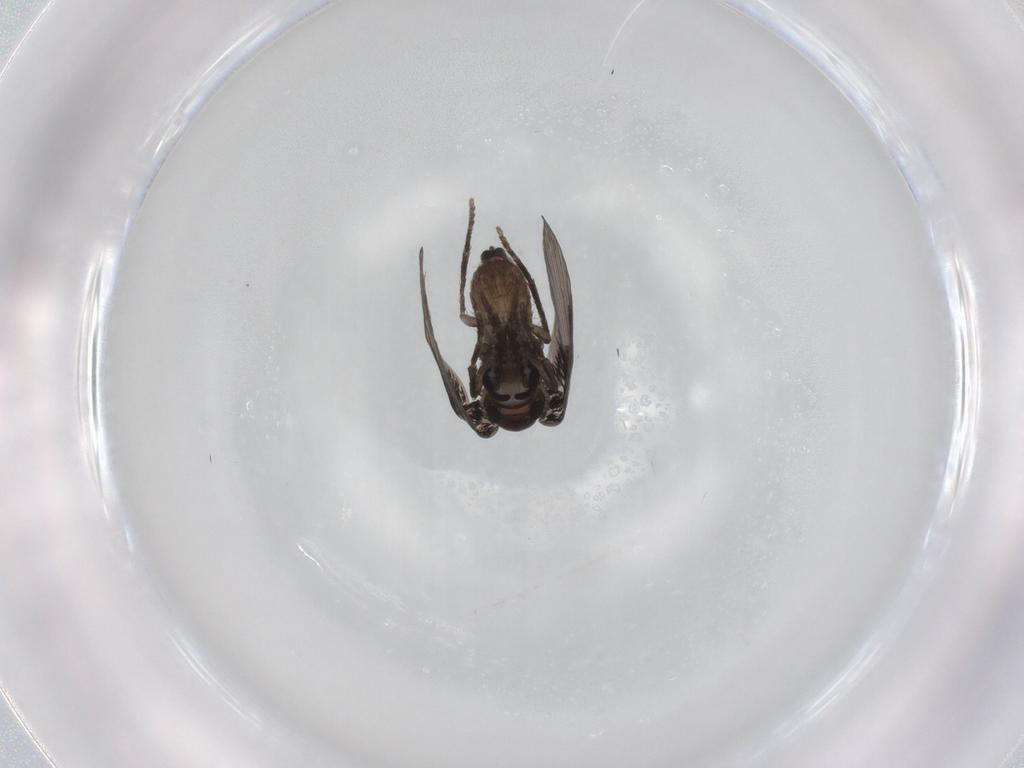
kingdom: Animalia
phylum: Arthropoda
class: Insecta
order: Diptera
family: Psychodidae
